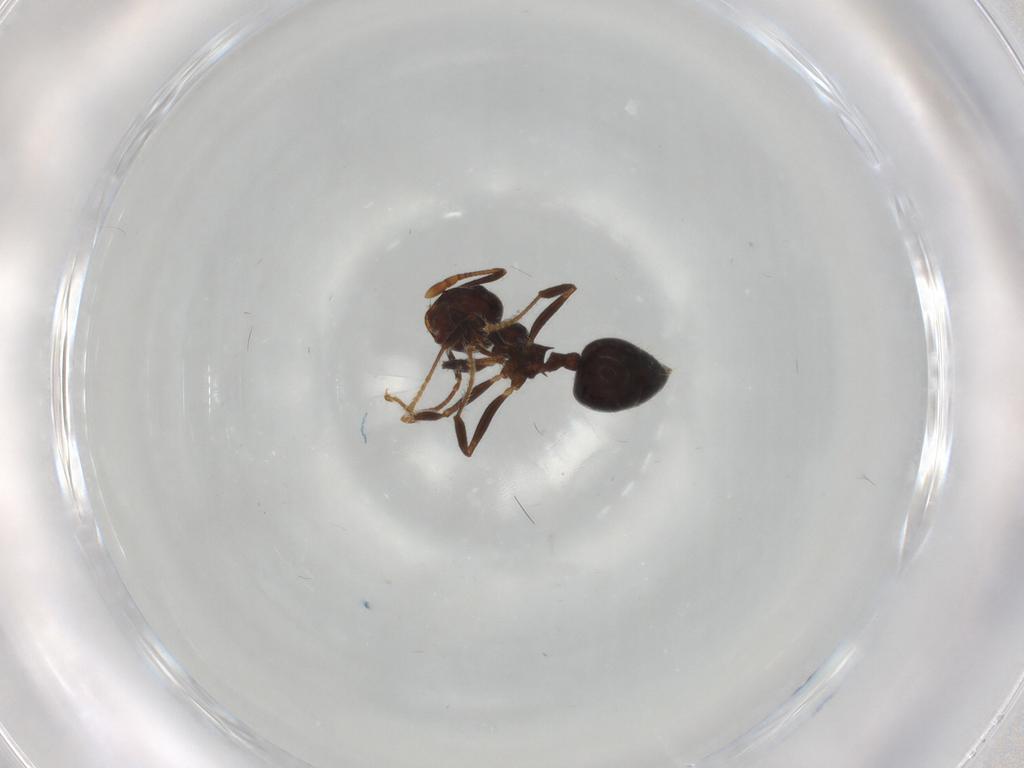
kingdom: Animalia
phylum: Arthropoda
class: Insecta
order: Hymenoptera
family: Formicidae
